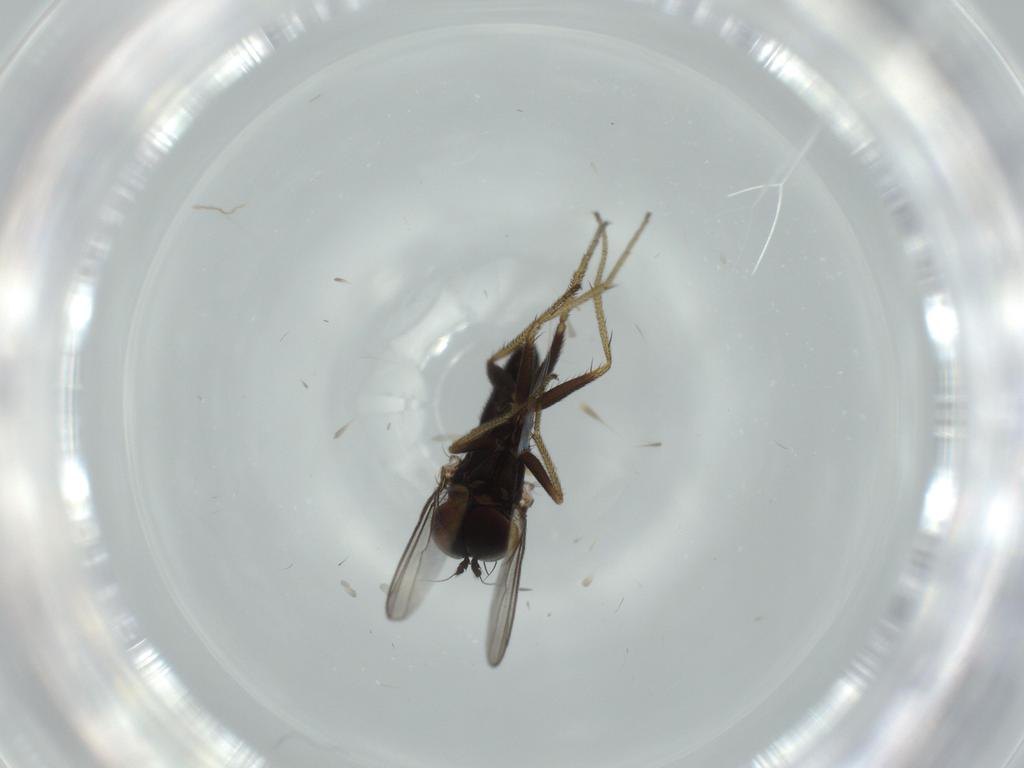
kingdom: Animalia
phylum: Arthropoda
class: Insecta
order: Diptera
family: Dolichopodidae
